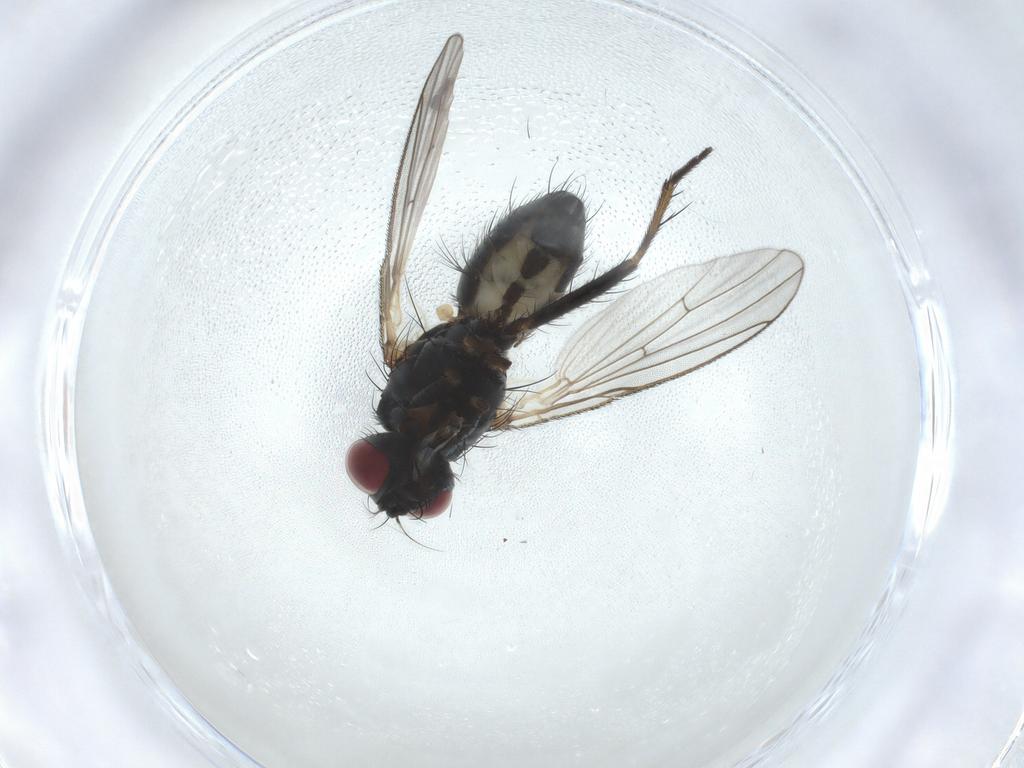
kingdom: Animalia
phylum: Arthropoda
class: Insecta
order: Diptera
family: Muscidae
